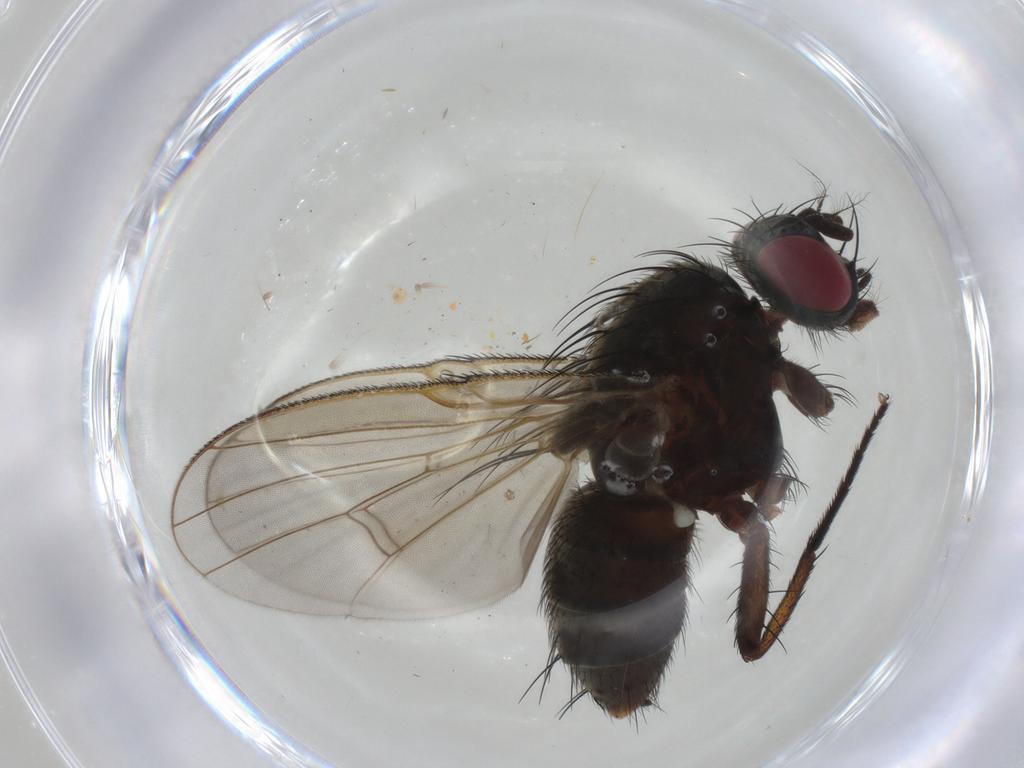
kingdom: Animalia
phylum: Arthropoda
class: Insecta
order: Diptera
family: Muscidae
